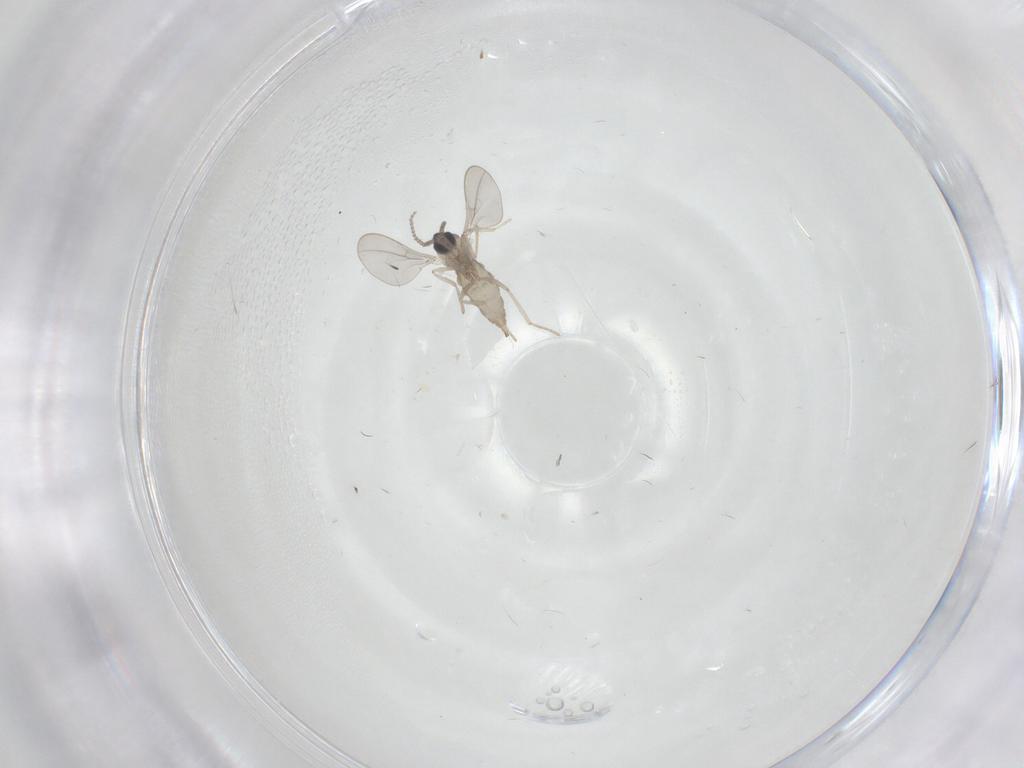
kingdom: Animalia
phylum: Arthropoda
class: Insecta
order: Diptera
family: Cecidomyiidae
